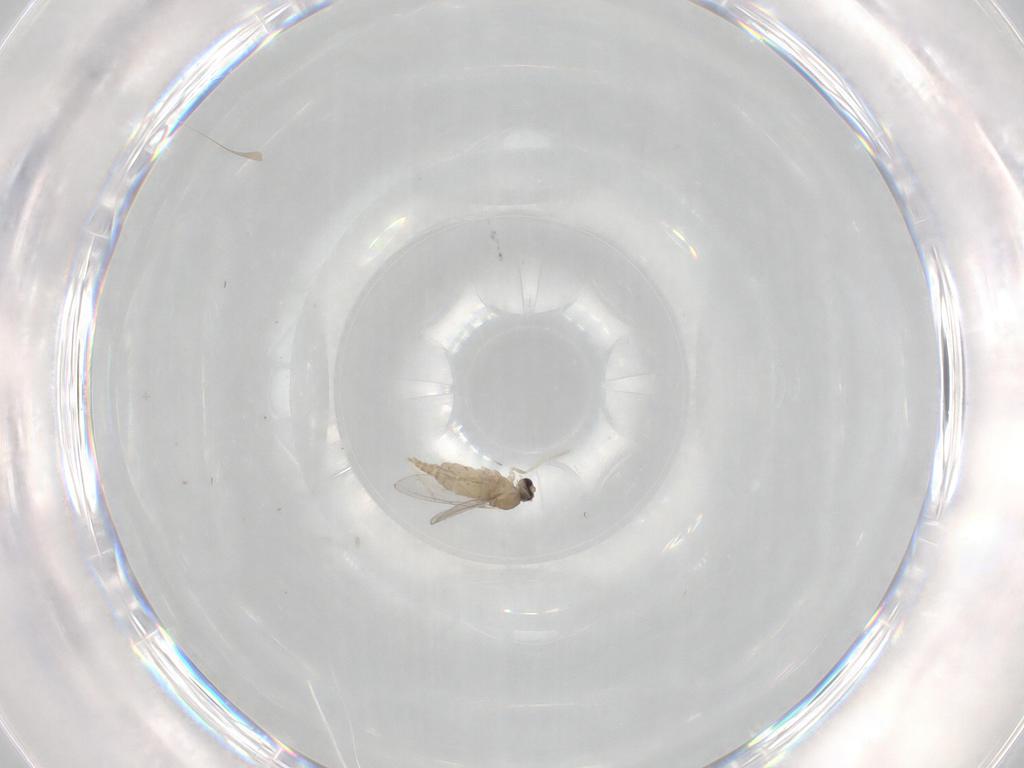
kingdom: Animalia
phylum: Arthropoda
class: Insecta
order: Diptera
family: Cecidomyiidae
